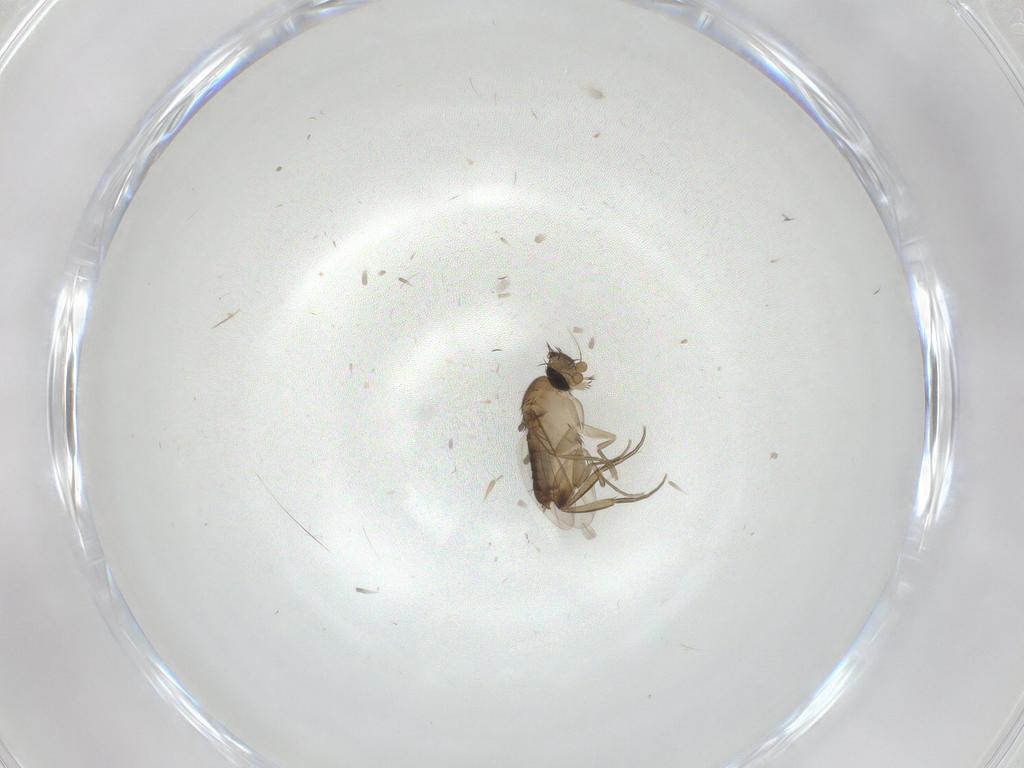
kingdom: Animalia
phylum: Arthropoda
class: Insecta
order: Diptera
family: Phoridae
